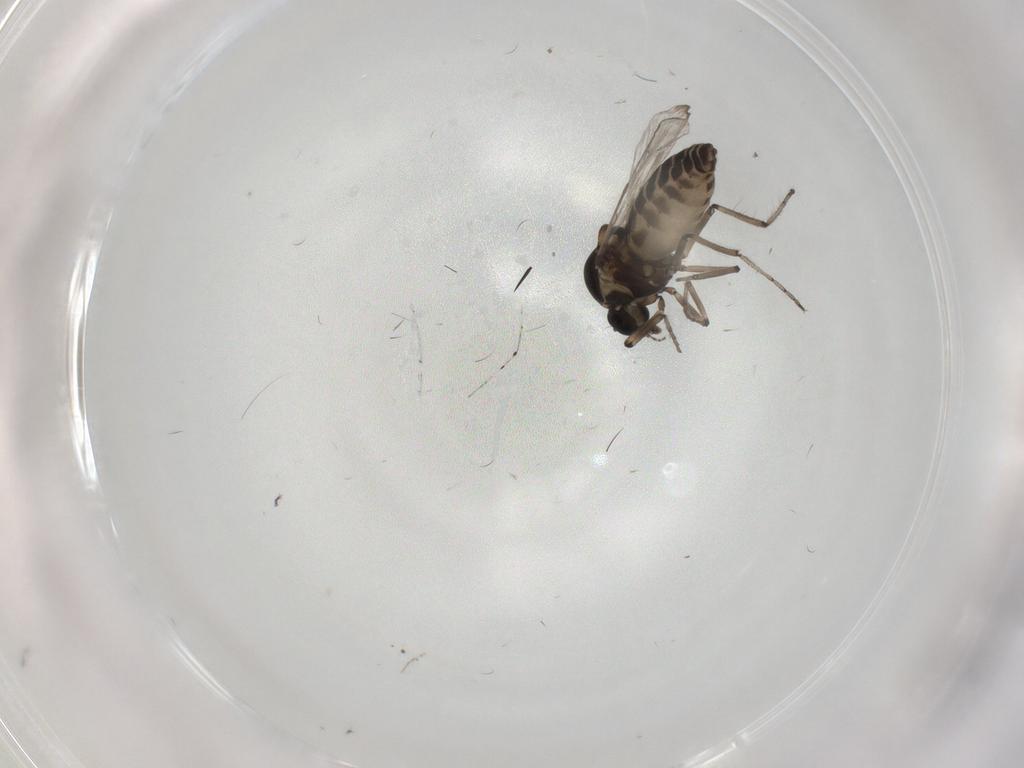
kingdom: Animalia
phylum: Arthropoda
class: Insecta
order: Diptera
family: Ceratopogonidae
